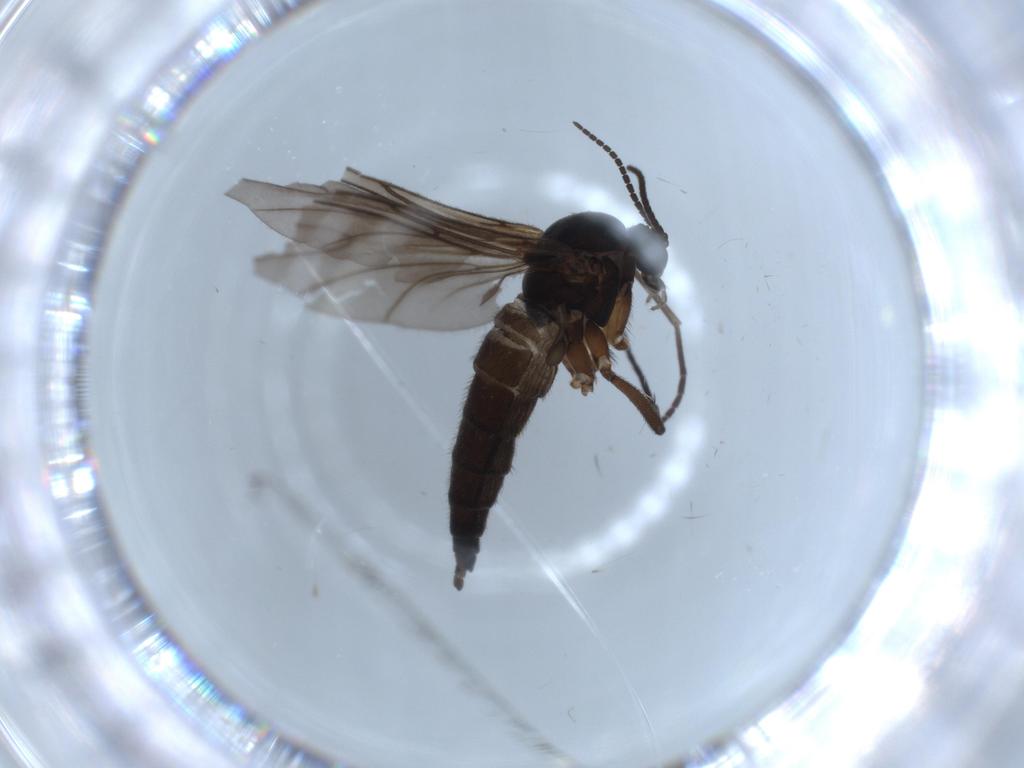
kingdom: Animalia
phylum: Arthropoda
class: Insecta
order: Diptera
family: Sciaridae
